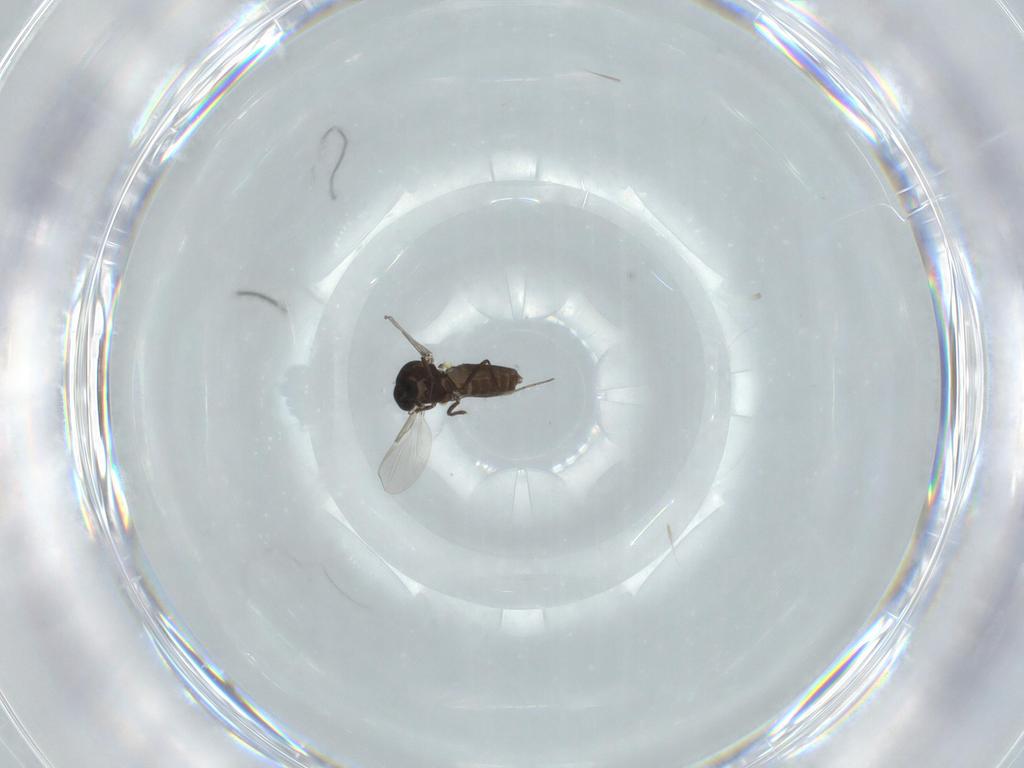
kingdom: Animalia
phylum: Arthropoda
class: Insecta
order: Diptera
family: Ceratopogonidae
